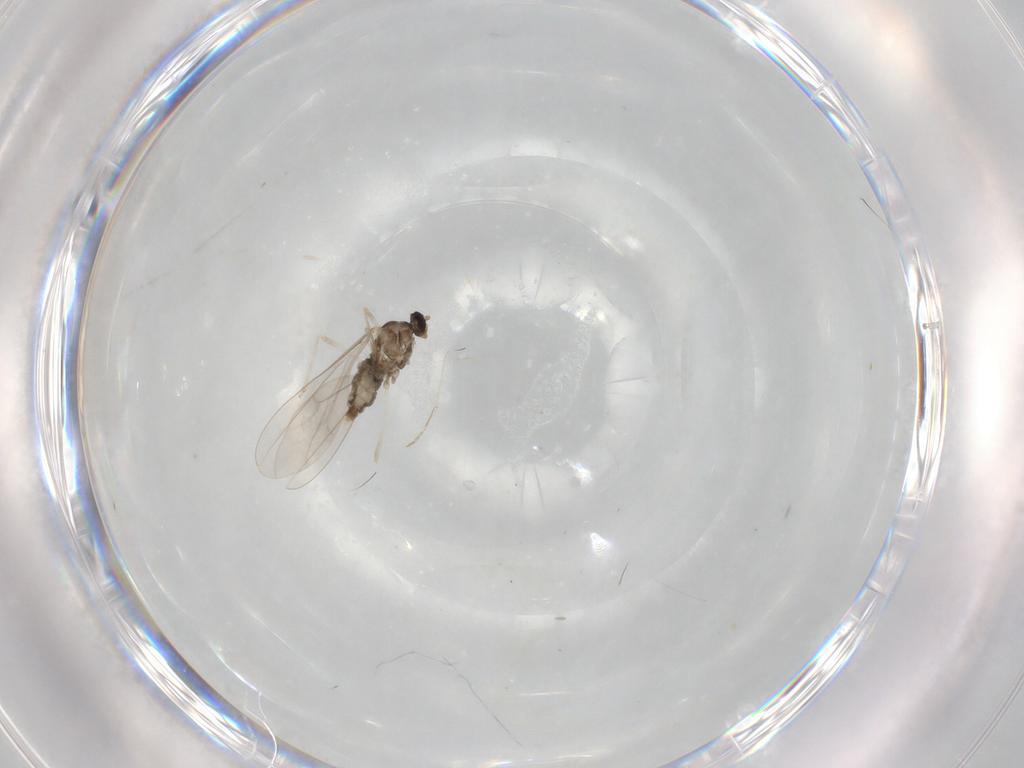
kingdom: Animalia
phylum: Arthropoda
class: Insecta
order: Diptera
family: Cecidomyiidae
